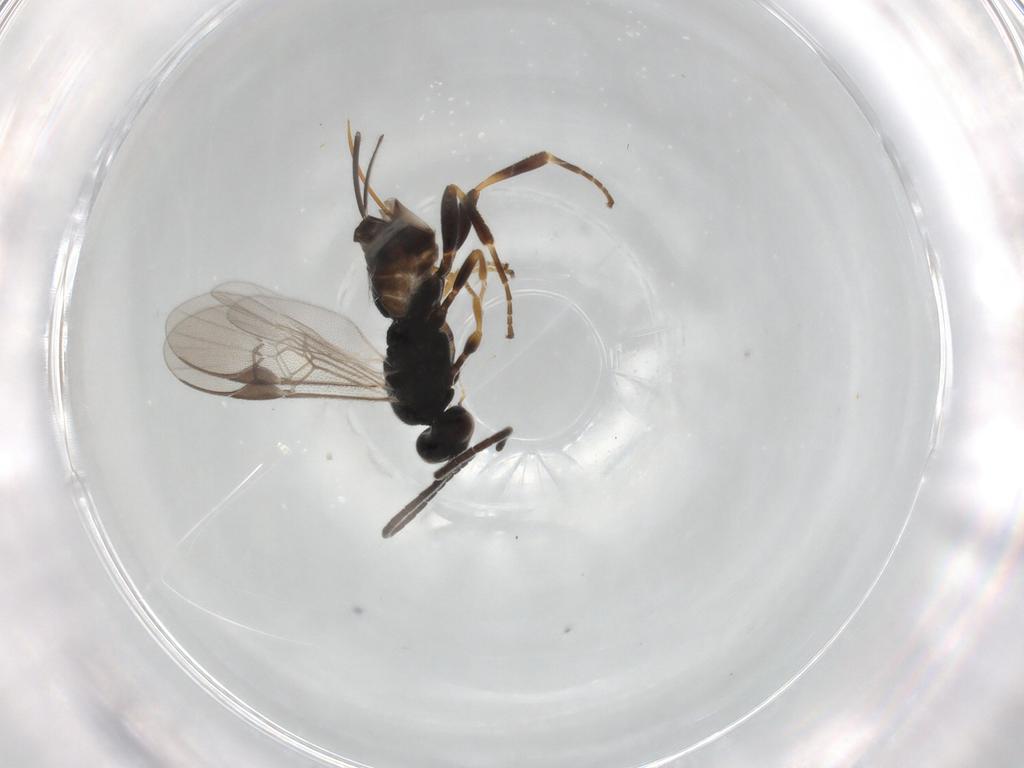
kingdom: Animalia
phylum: Arthropoda
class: Insecta
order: Hymenoptera
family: Braconidae
